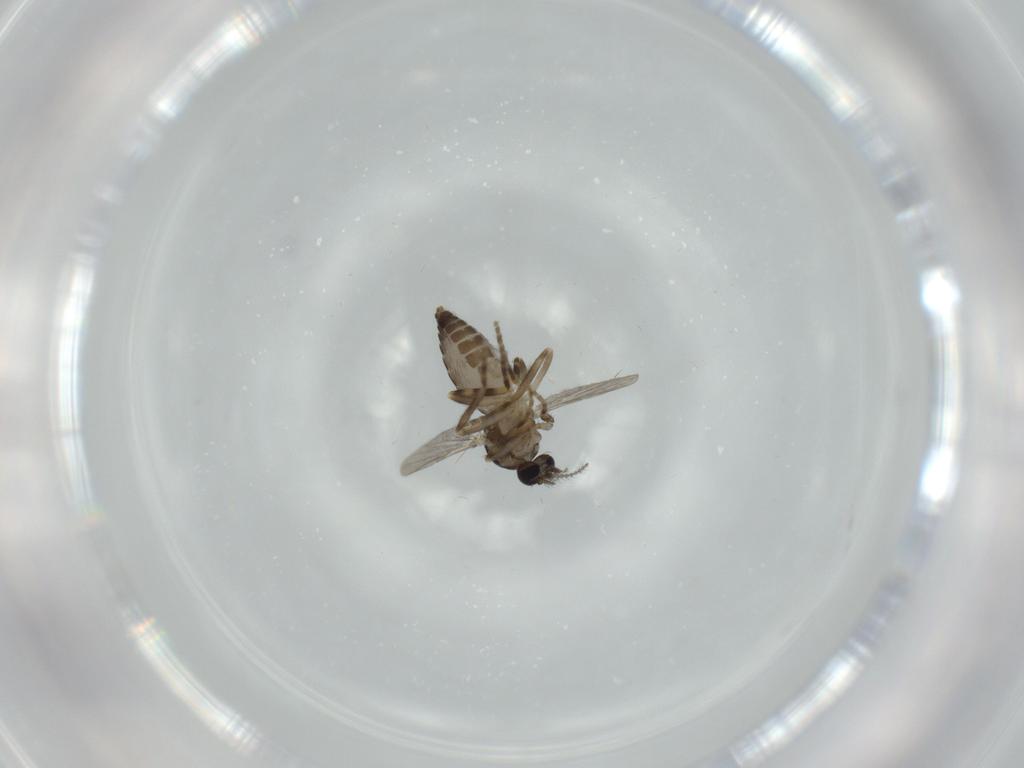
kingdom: Animalia
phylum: Arthropoda
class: Insecta
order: Diptera
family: Ceratopogonidae
